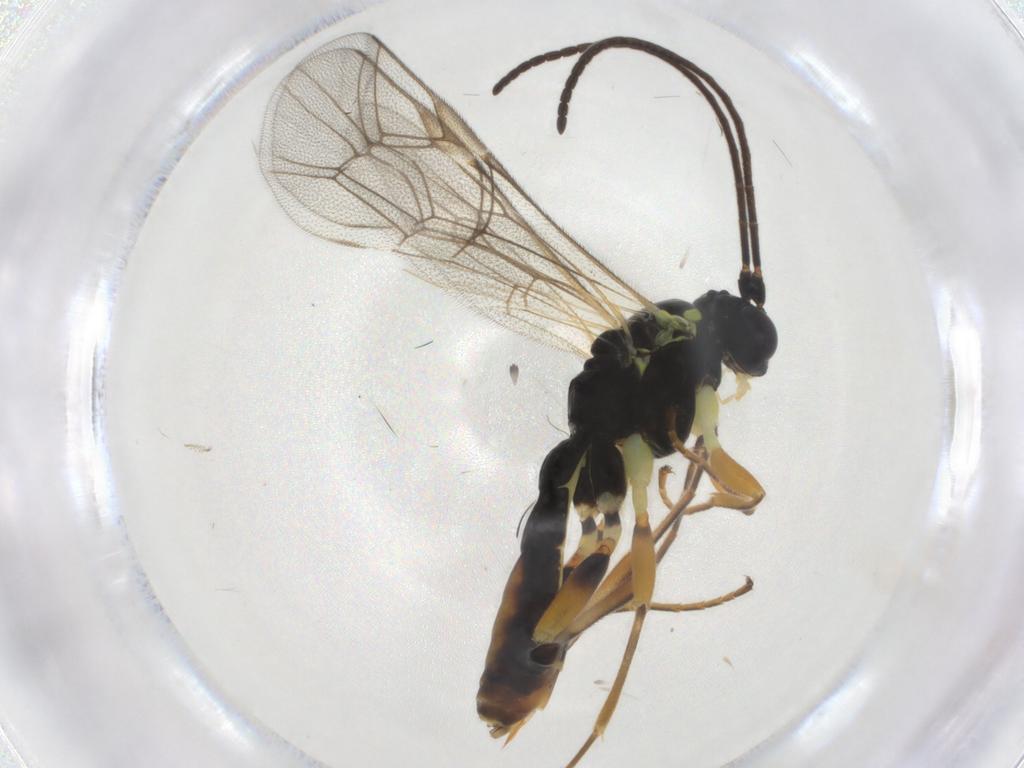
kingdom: Animalia
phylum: Arthropoda
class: Insecta
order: Hymenoptera
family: Ichneumonidae
